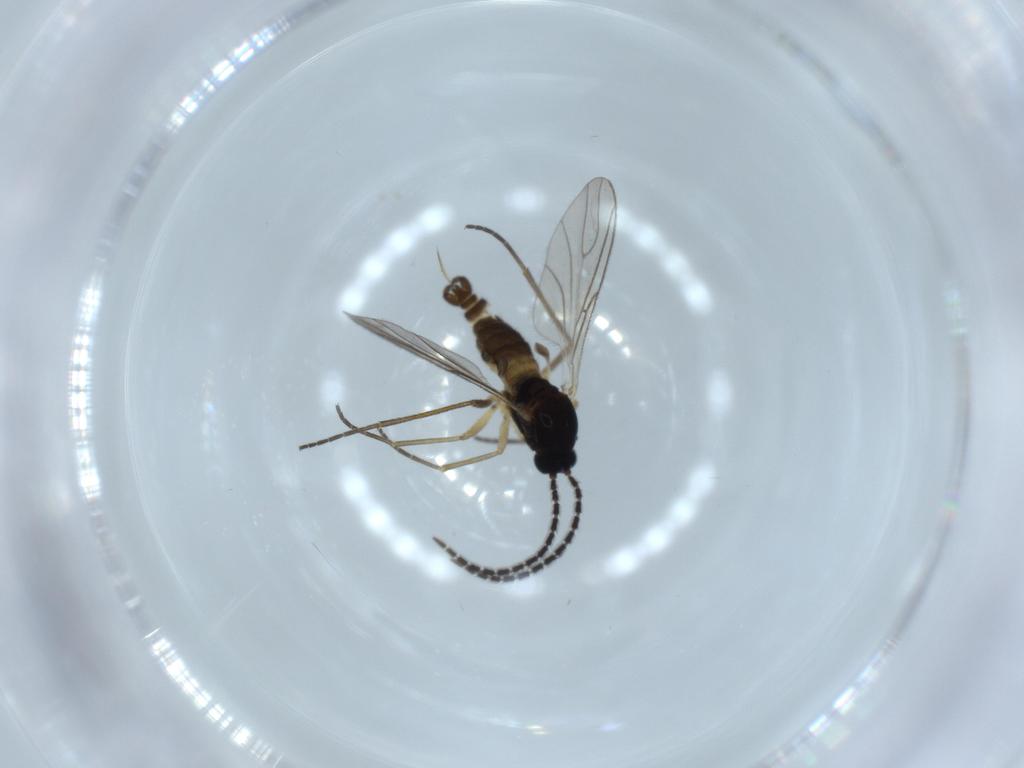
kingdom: Animalia
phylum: Arthropoda
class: Insecta
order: Diptera
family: Sciaridae
